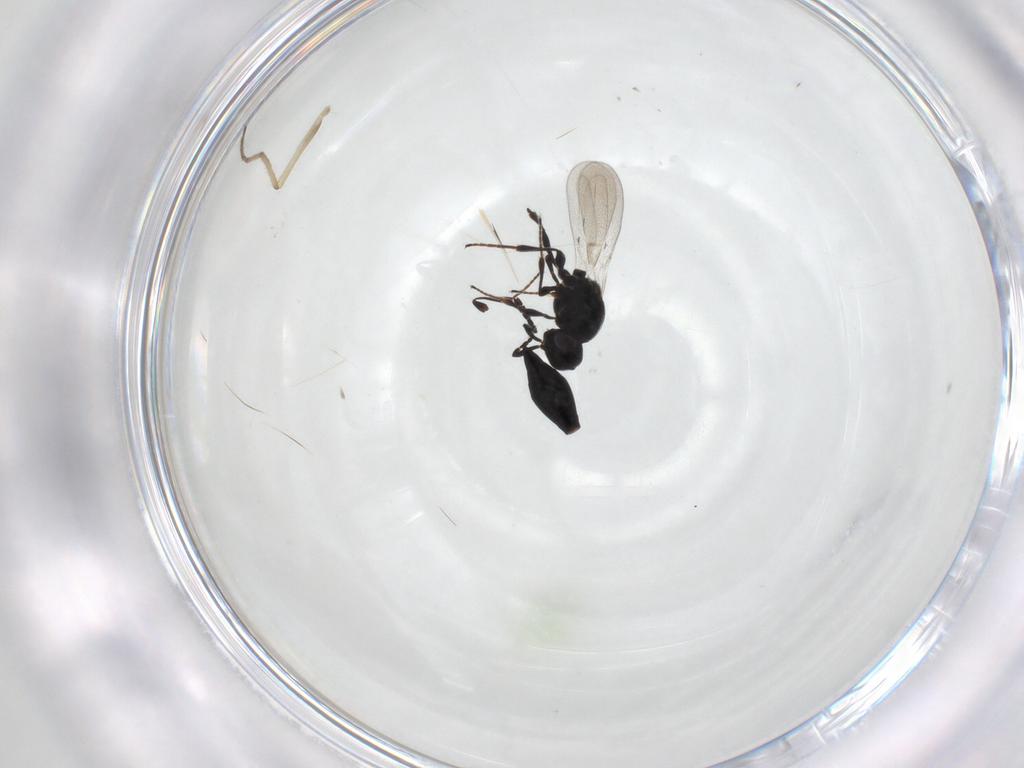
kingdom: Animalia
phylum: Arthropoda
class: Insecta
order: Diptera
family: Mythicomyiidae
